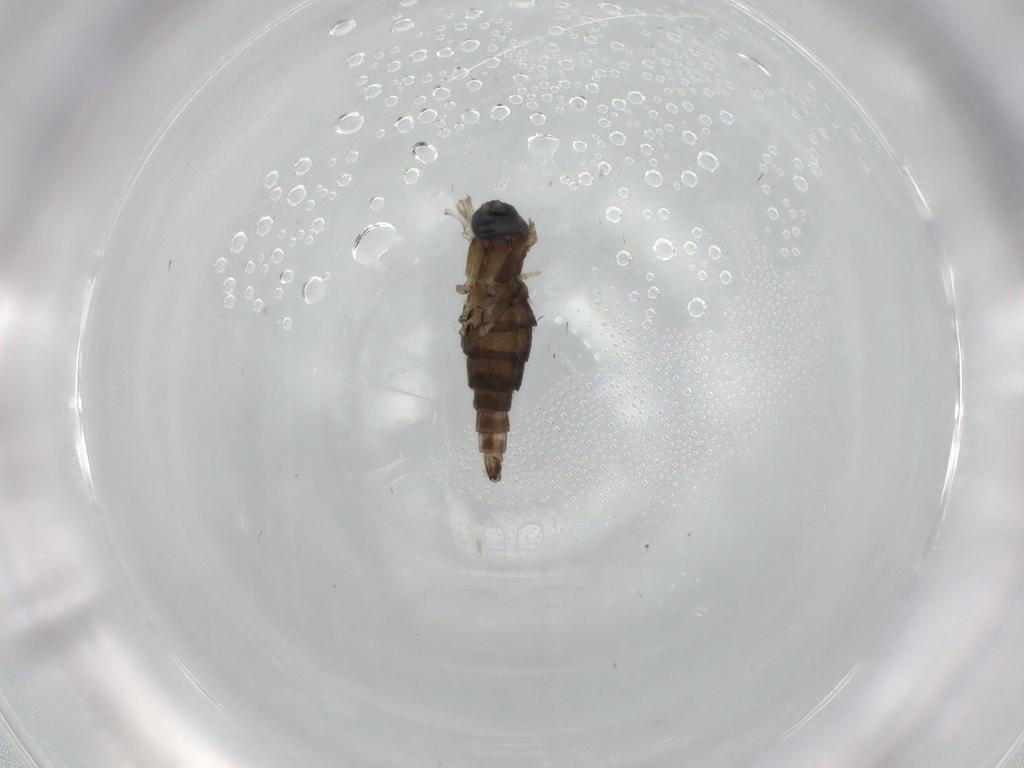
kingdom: Animalia
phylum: Arthropoda
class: Insecta
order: Diptera
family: Sciaridae
